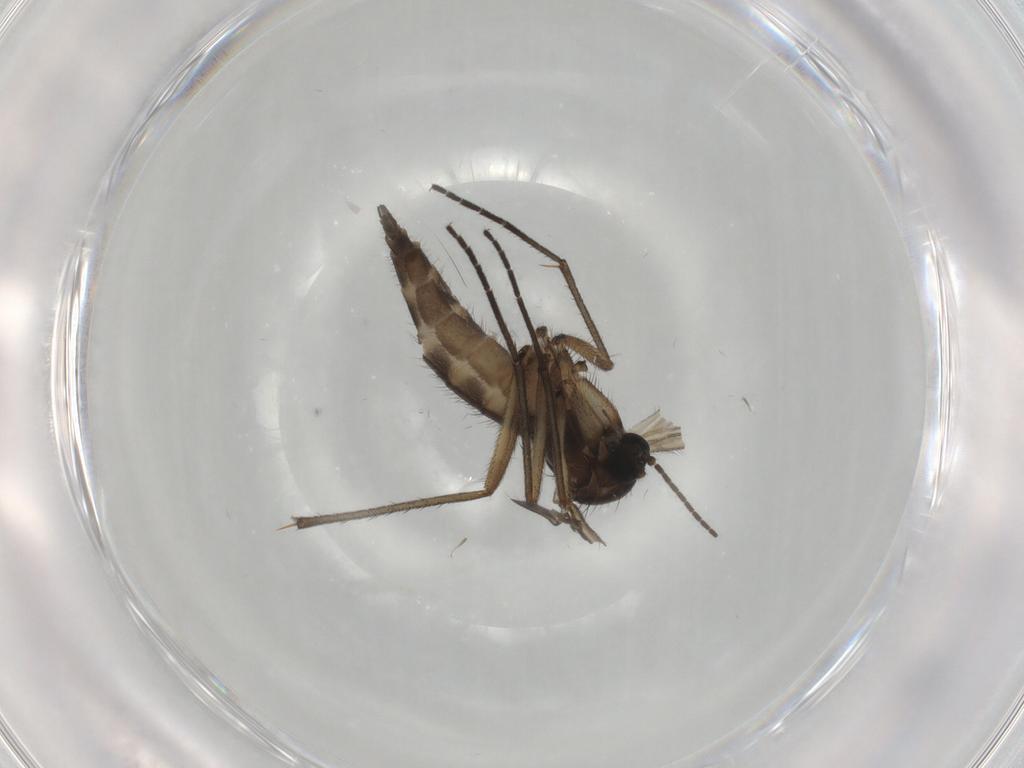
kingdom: Animalia
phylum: Arthropoda
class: Insecta
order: Diptera
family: Sciaridae
